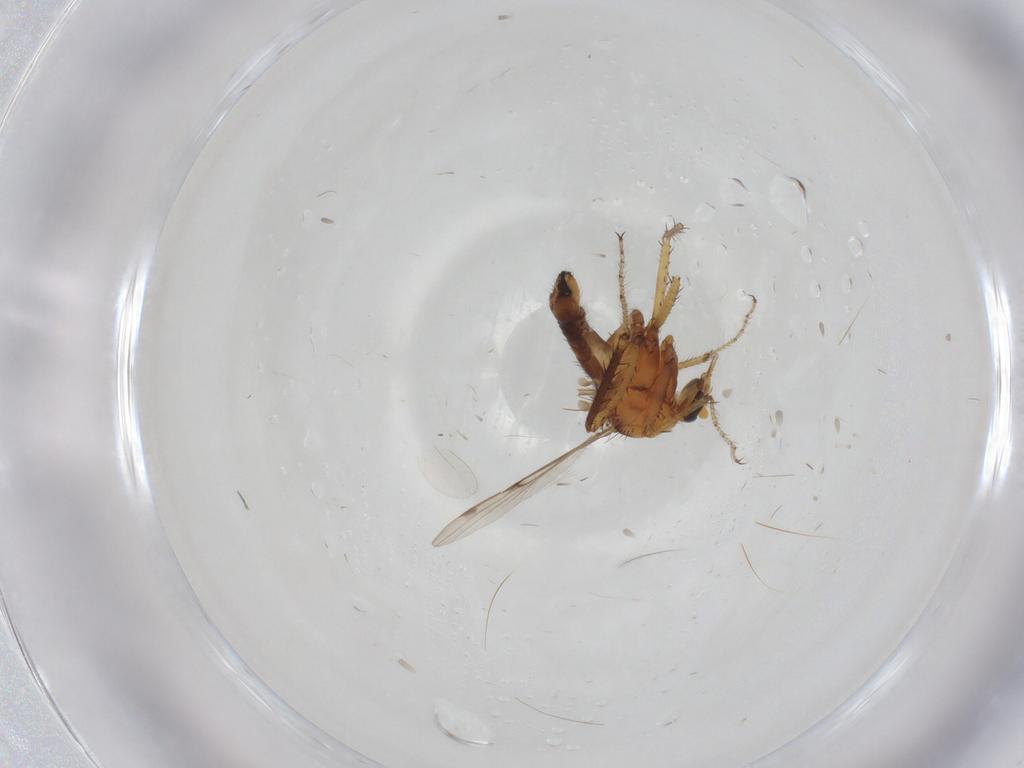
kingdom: Animalia
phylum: Arthropoda
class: Insecta
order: Diptera
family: Ceratopogonidae
